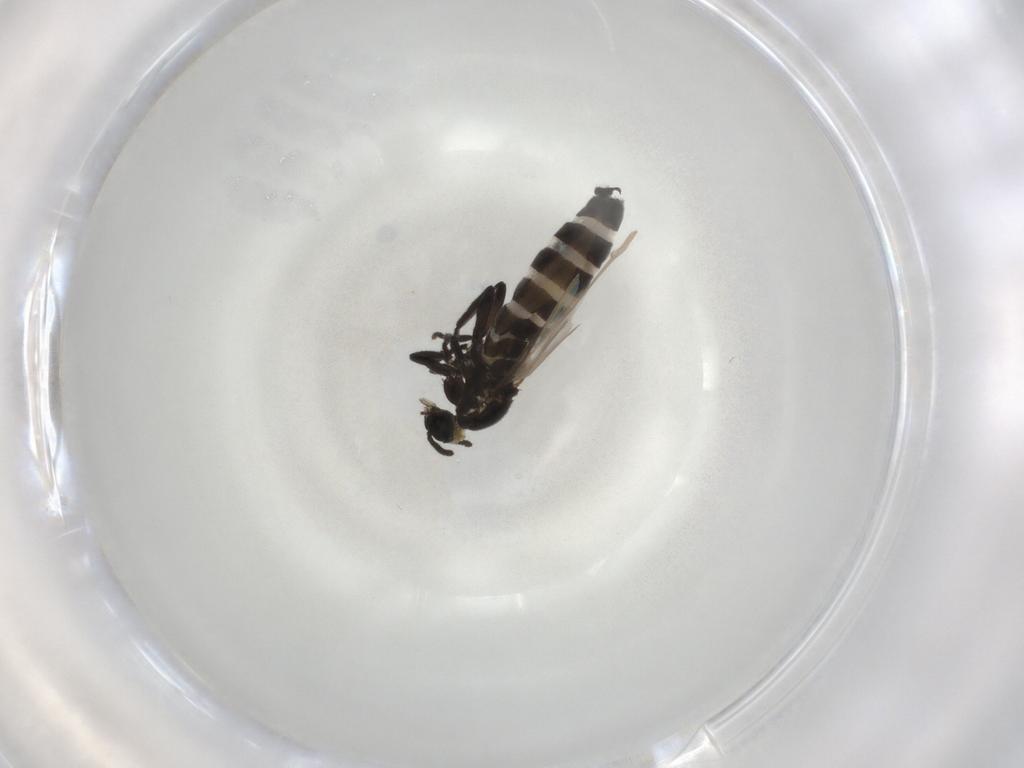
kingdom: Animalia
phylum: Arthropoda
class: Insecta
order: Diptera
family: Scatopsidae
